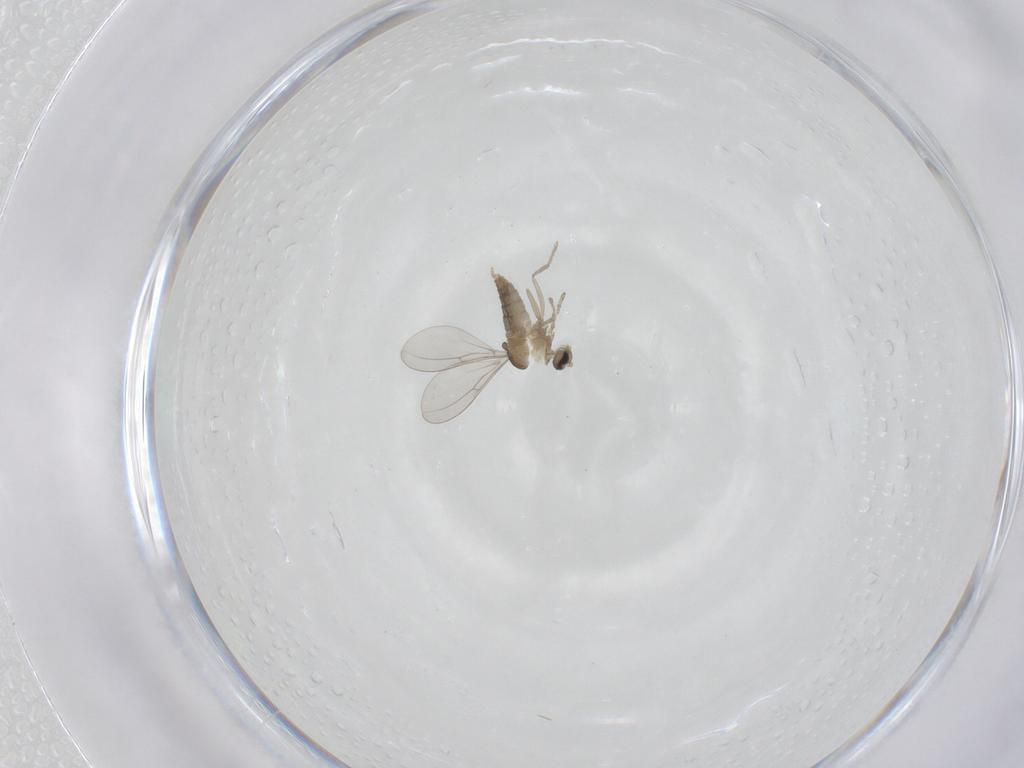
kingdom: Animalia
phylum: Arthropoda
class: Insecta
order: Diptera
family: Cecidomyiidae
